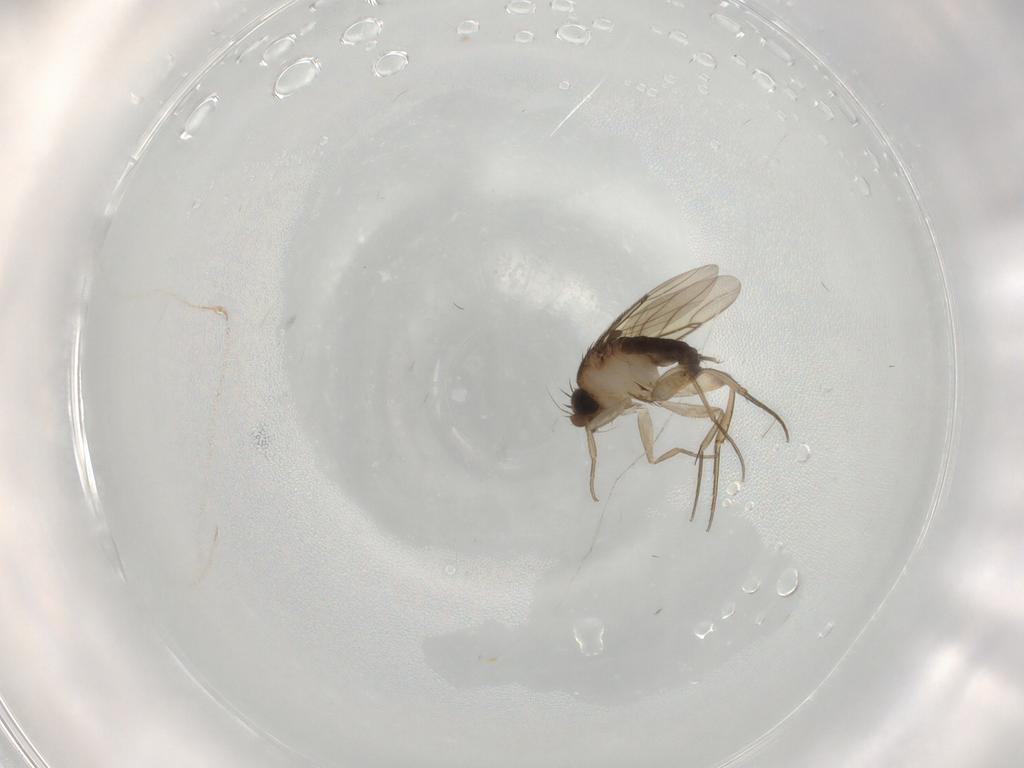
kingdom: Animalia
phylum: Arthropoda
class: Insecta
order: Diptera
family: Cecidomyiidae
